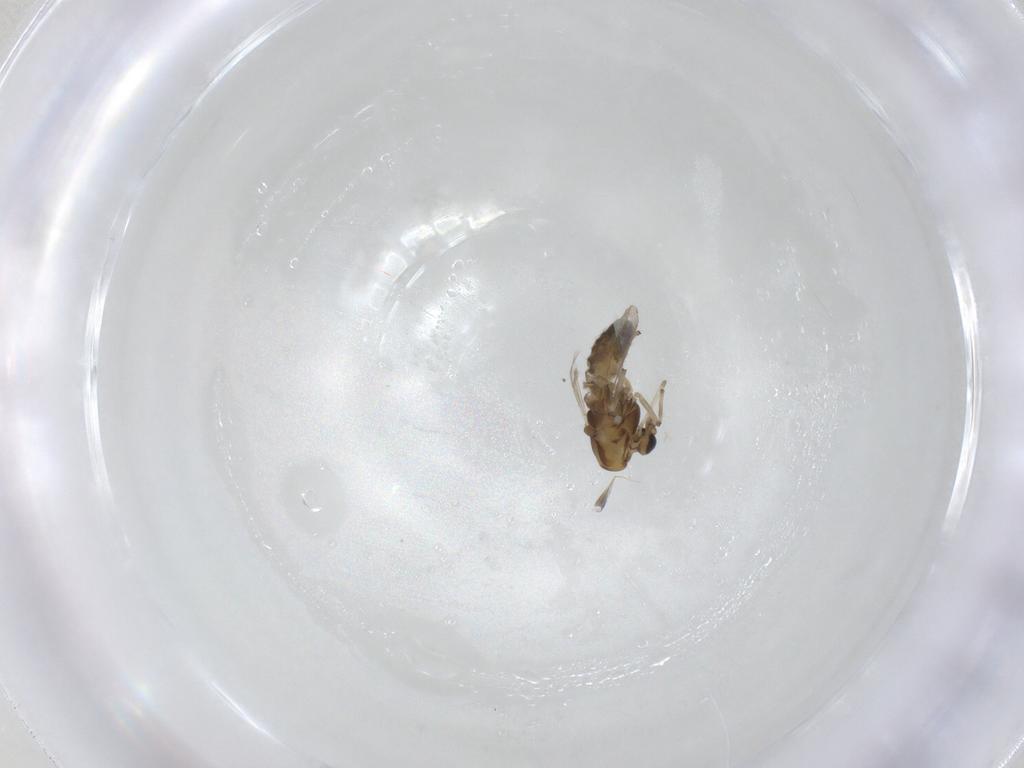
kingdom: Animalia
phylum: Arthropoda
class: Insecta
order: Diptera
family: Chironomidae
